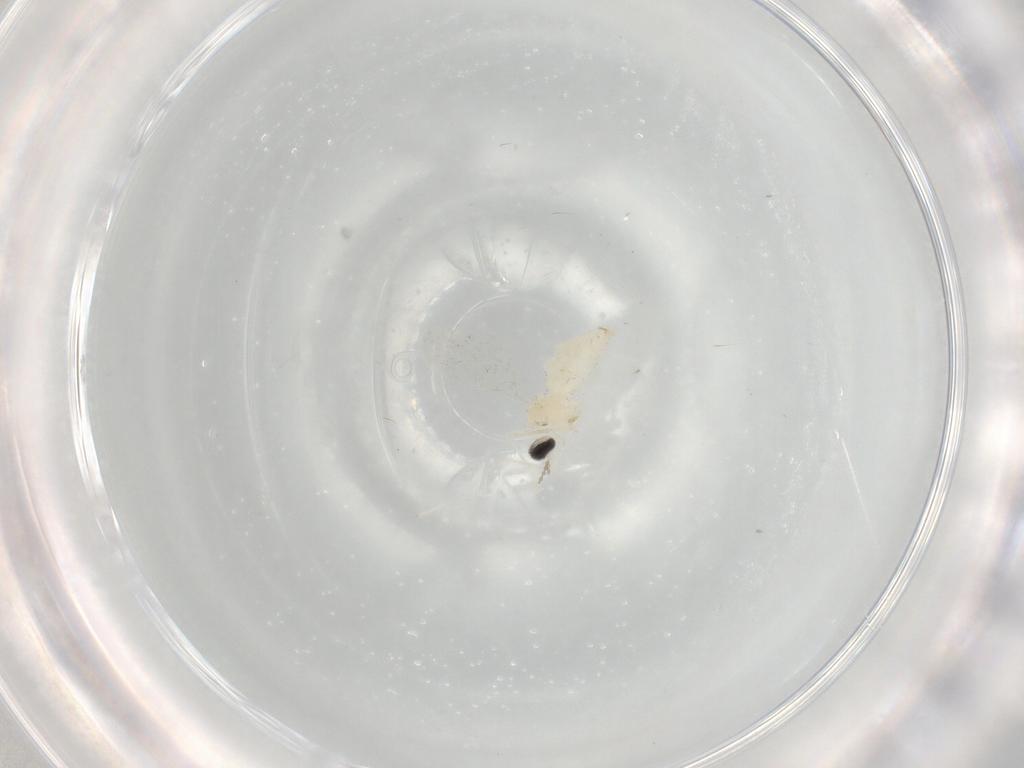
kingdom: Animalia
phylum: Arthropoda
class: Insecta
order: Diptera
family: Cecidomyiidae
